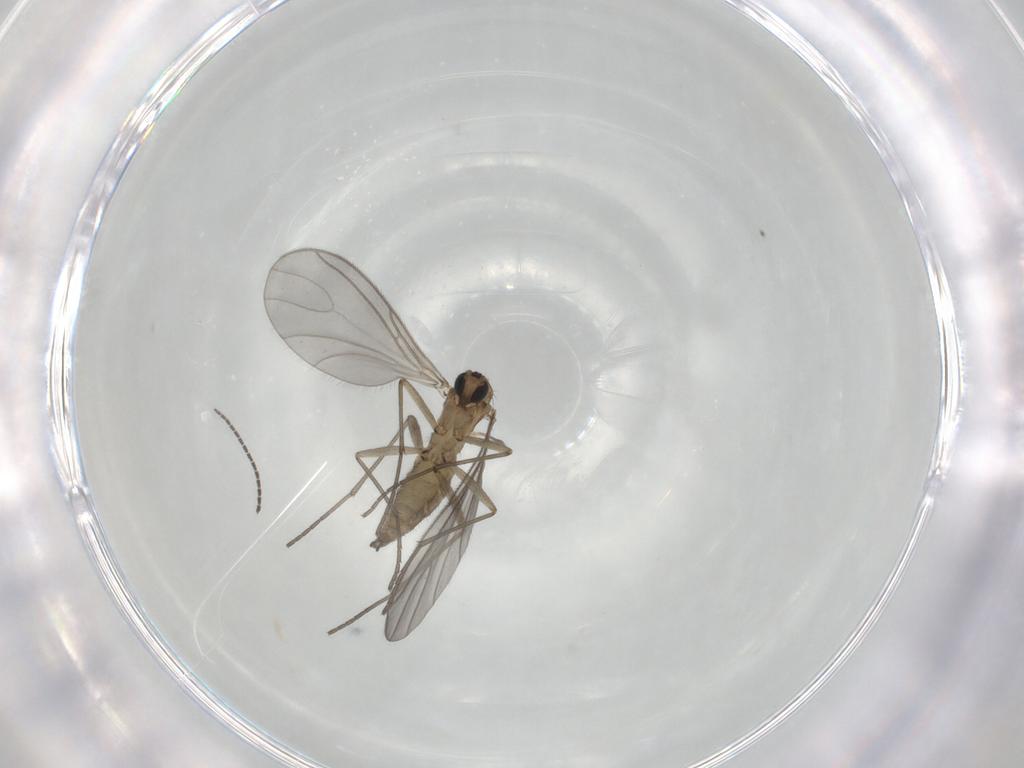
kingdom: Animalia
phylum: Arthropoda
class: Insecta
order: Diptera
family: Sciaridae
